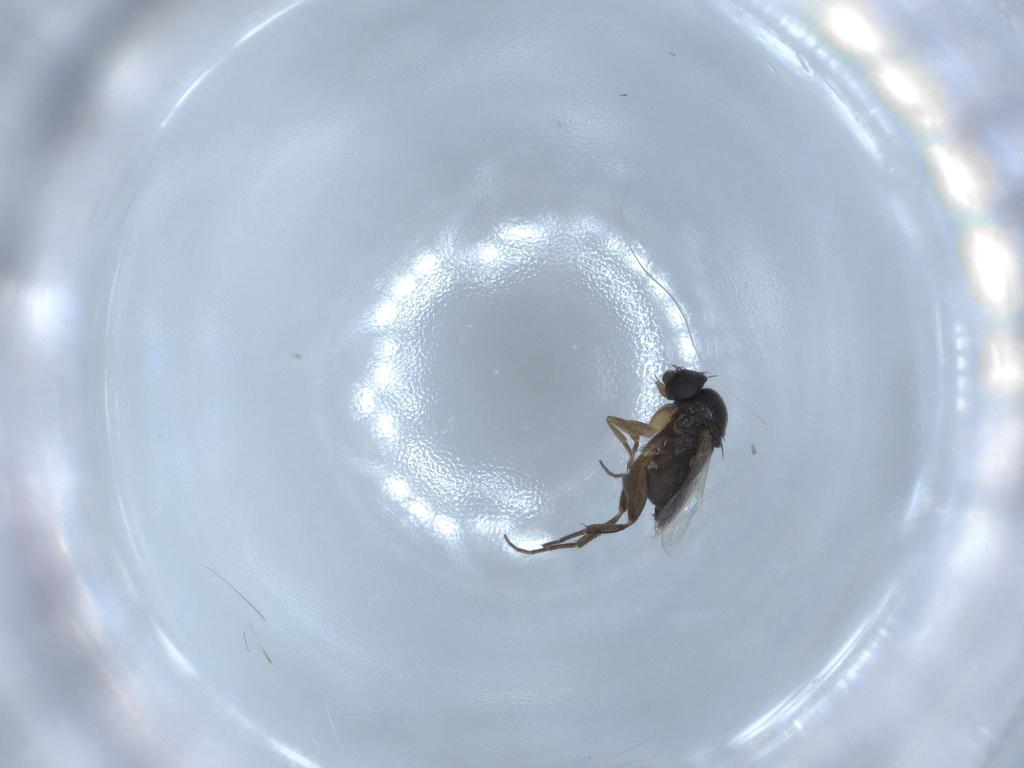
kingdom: Animalia
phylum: Arthropoda
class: Insecta
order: Diptera
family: Phoridae
